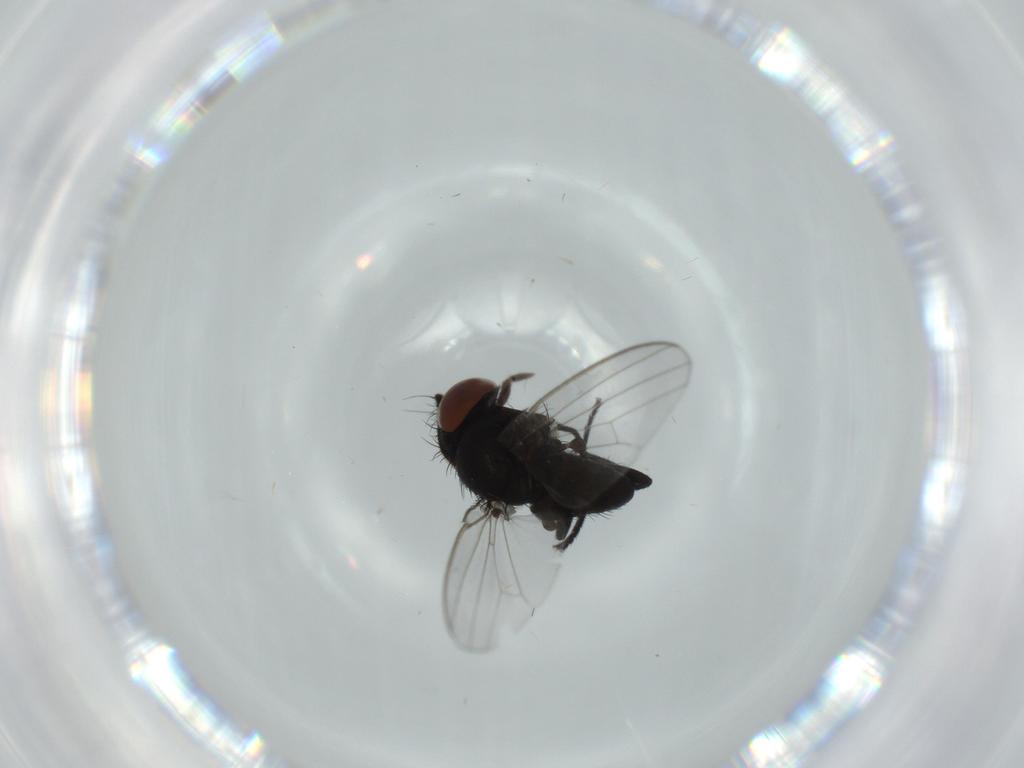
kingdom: Animalia
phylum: Arthropoda
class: Insecta
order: Diptera
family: Milichiidae
